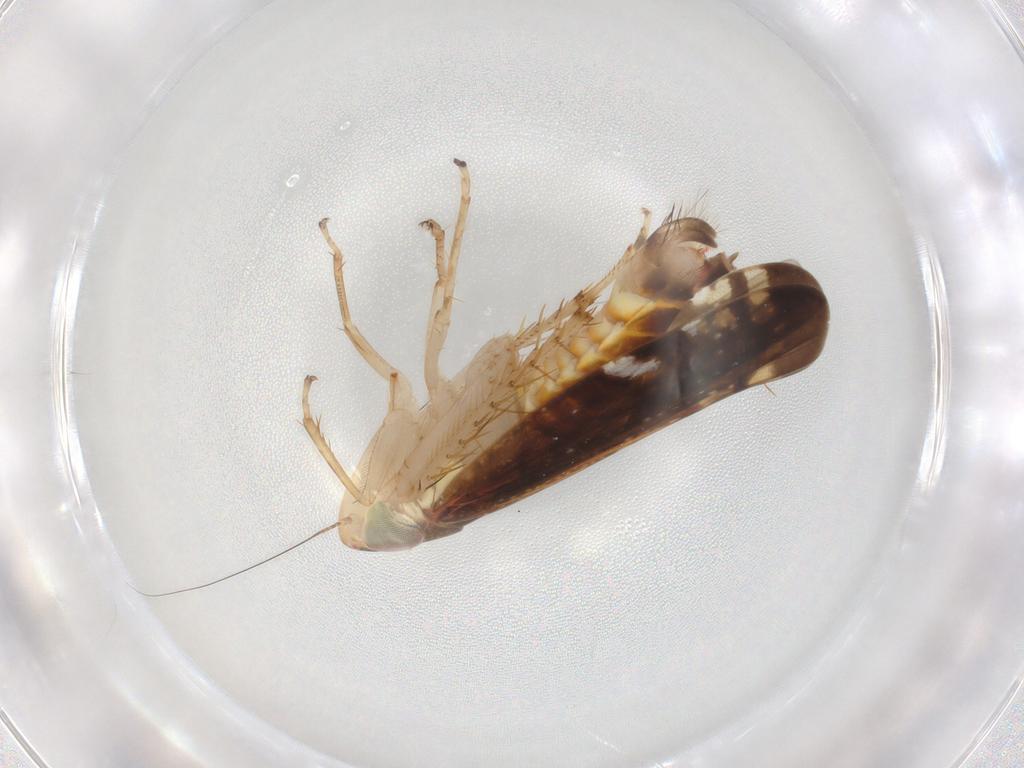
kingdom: Animalia
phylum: Arthropoda
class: Insecta
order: Hemiptera
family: Cicadellidae
